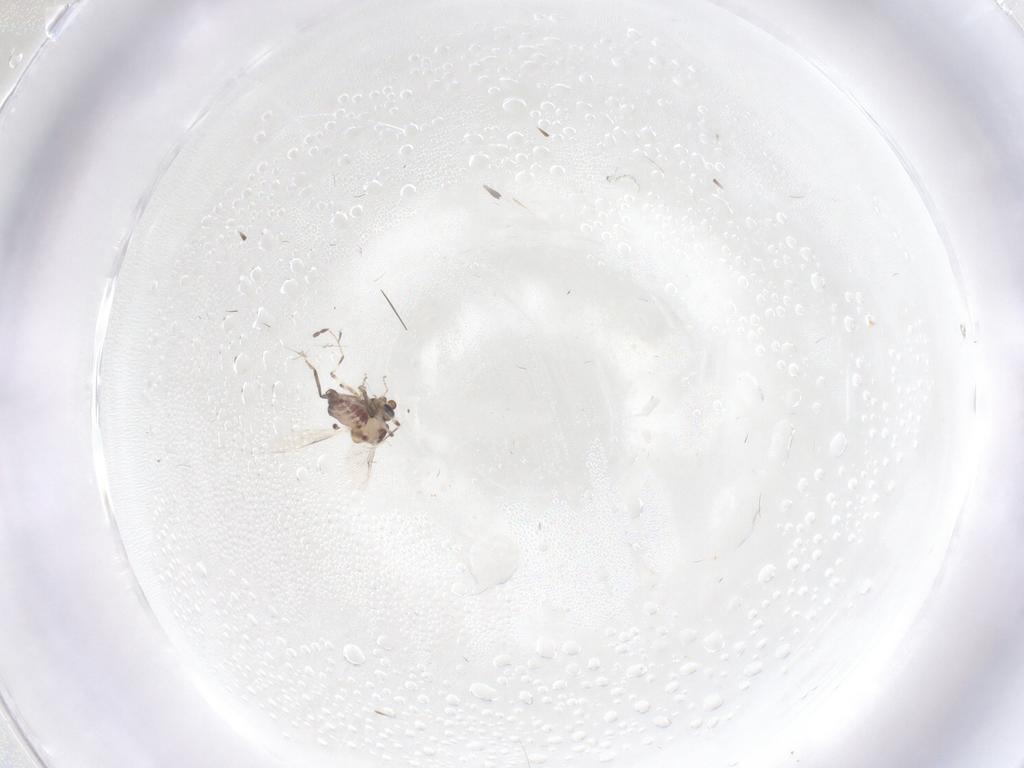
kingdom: Animalia
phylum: Arthropoda
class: Insecta
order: Diptera
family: Ceratopogonidae
